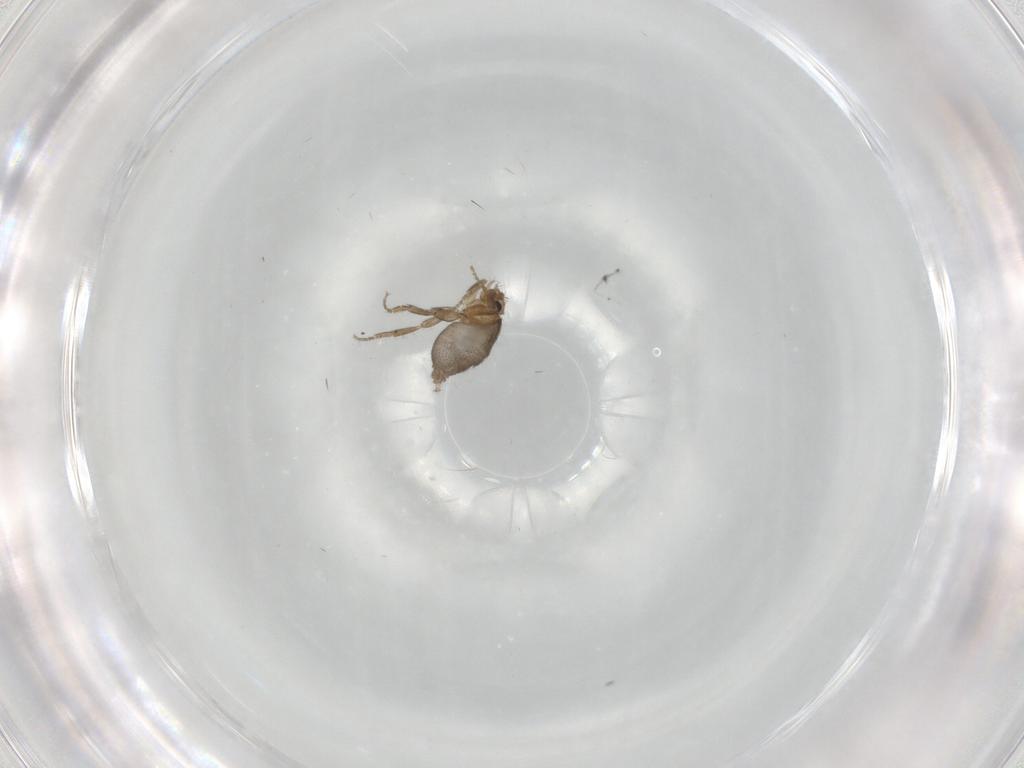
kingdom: Animalia
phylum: Arthropoda
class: Insecta
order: Diptera
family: Phoridae
